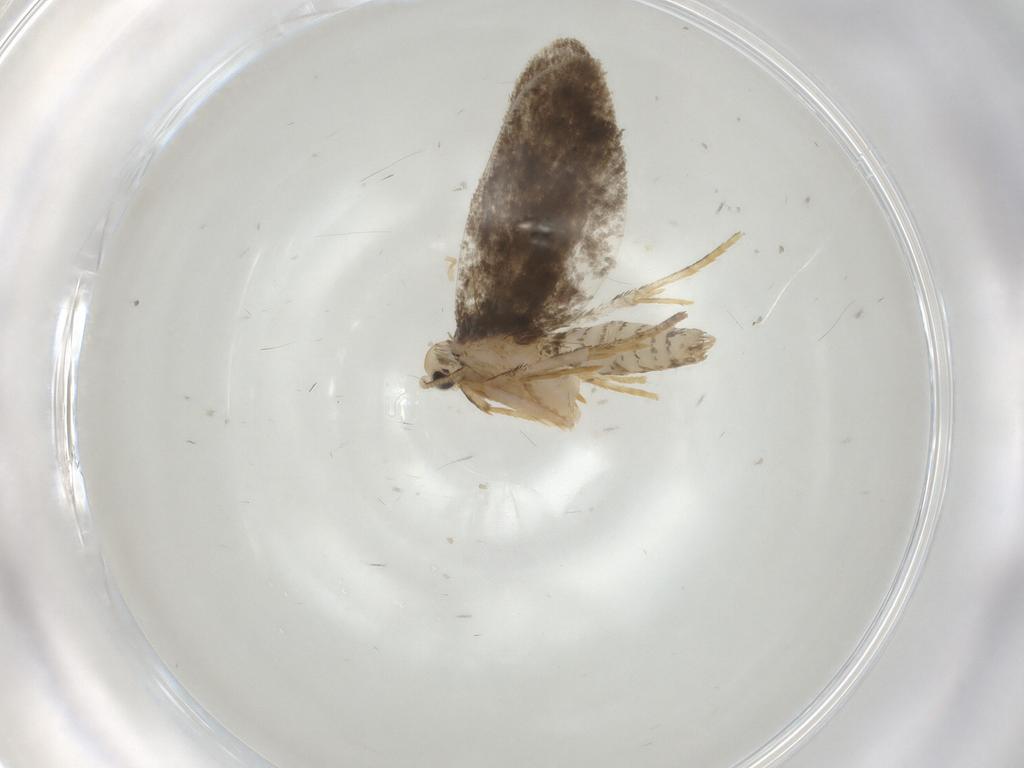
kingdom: Animalia
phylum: Arthropoda
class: Insecta
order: Lepidoptera
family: Psychidae
